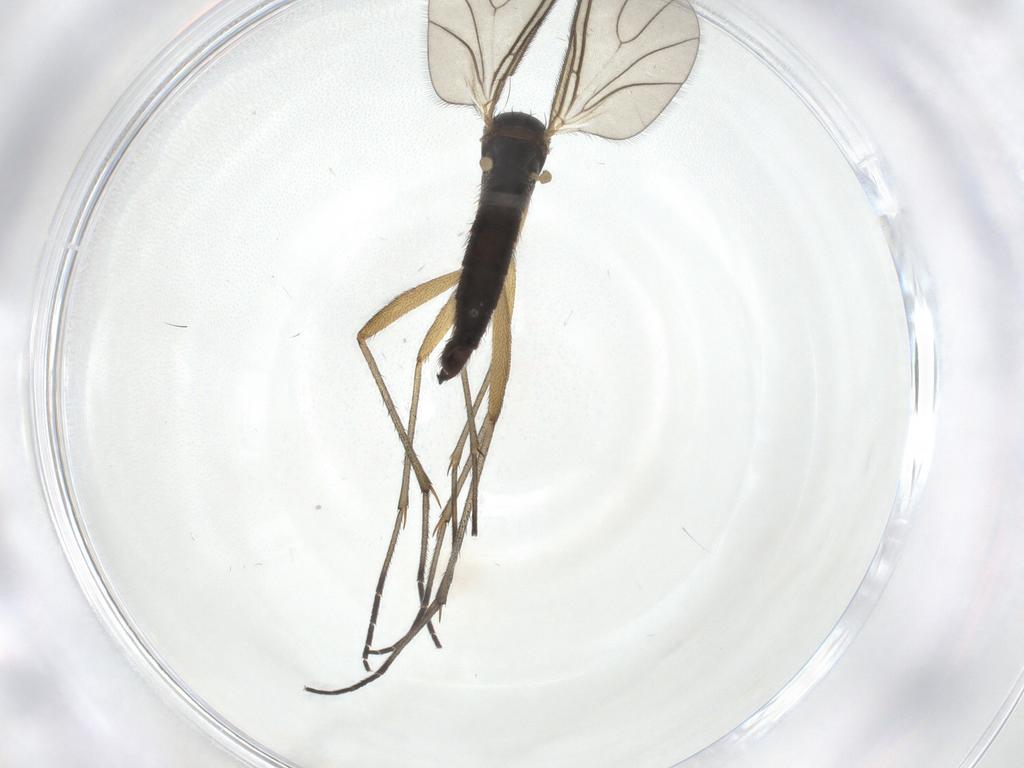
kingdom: Animalia
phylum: Arthropoda
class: Insecta
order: Diptera
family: Sciaridae
